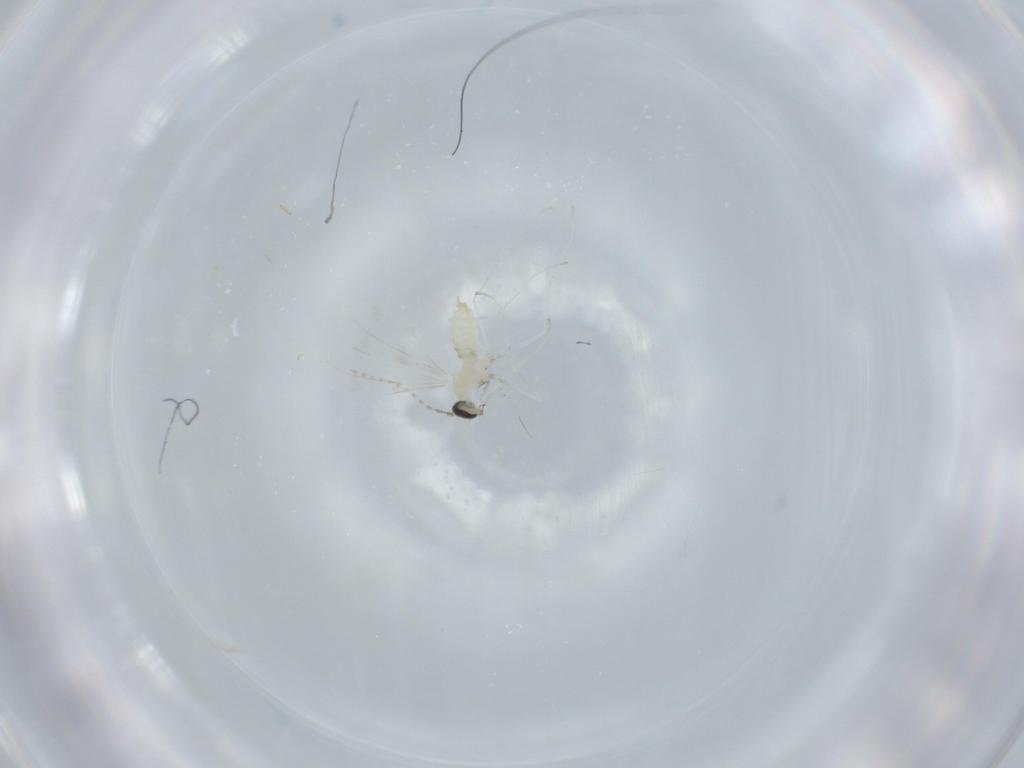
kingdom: Animalia
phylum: Arthropoda
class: Insecta
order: Diptera
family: Cecidomyiidae
